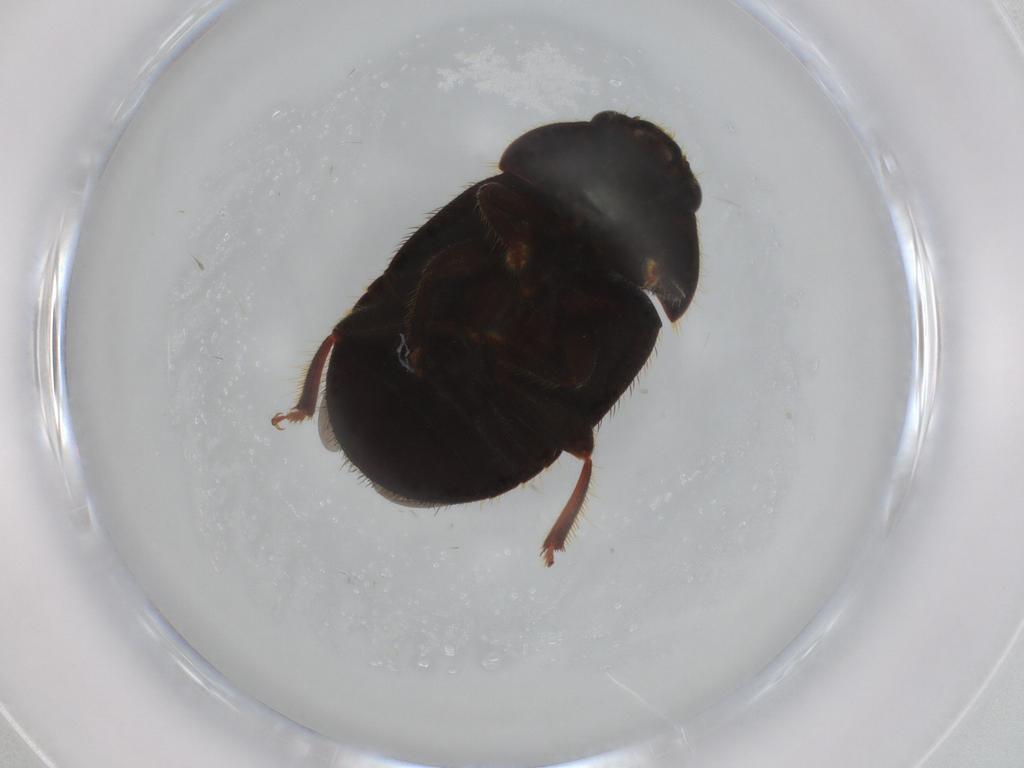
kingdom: Animalia
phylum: Arthropoda
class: Insecta
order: Coleoptera
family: Nitidulidae
